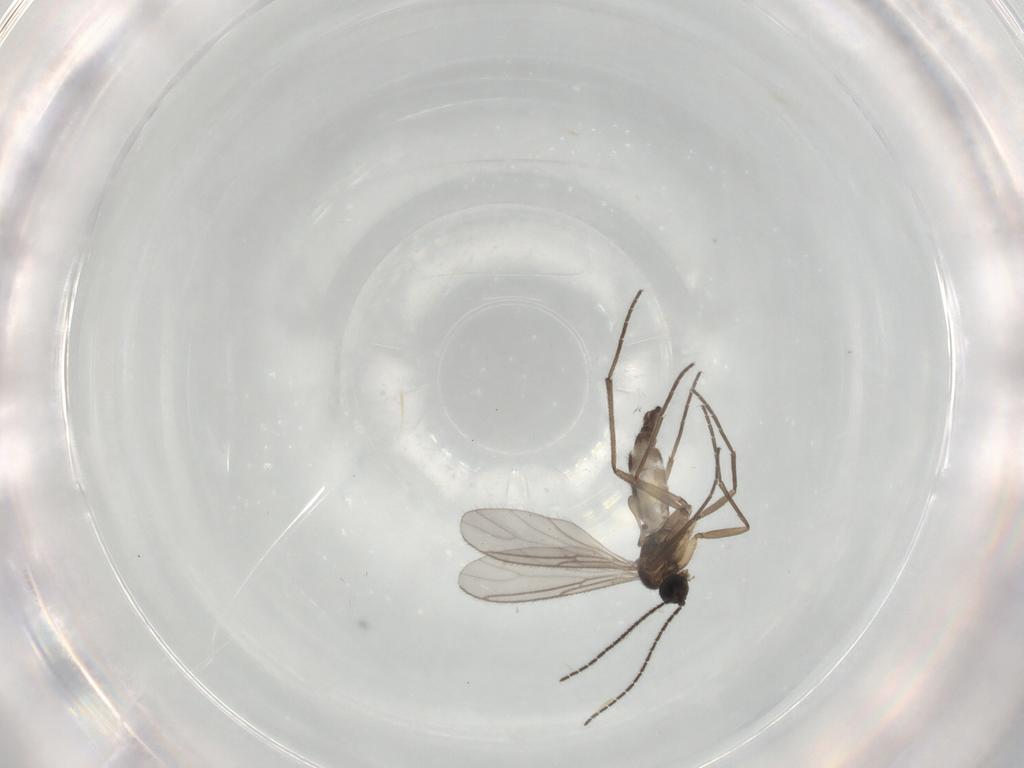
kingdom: Animalia
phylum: Arthropoda
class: Insecta
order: Diptera
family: Sciaridae
